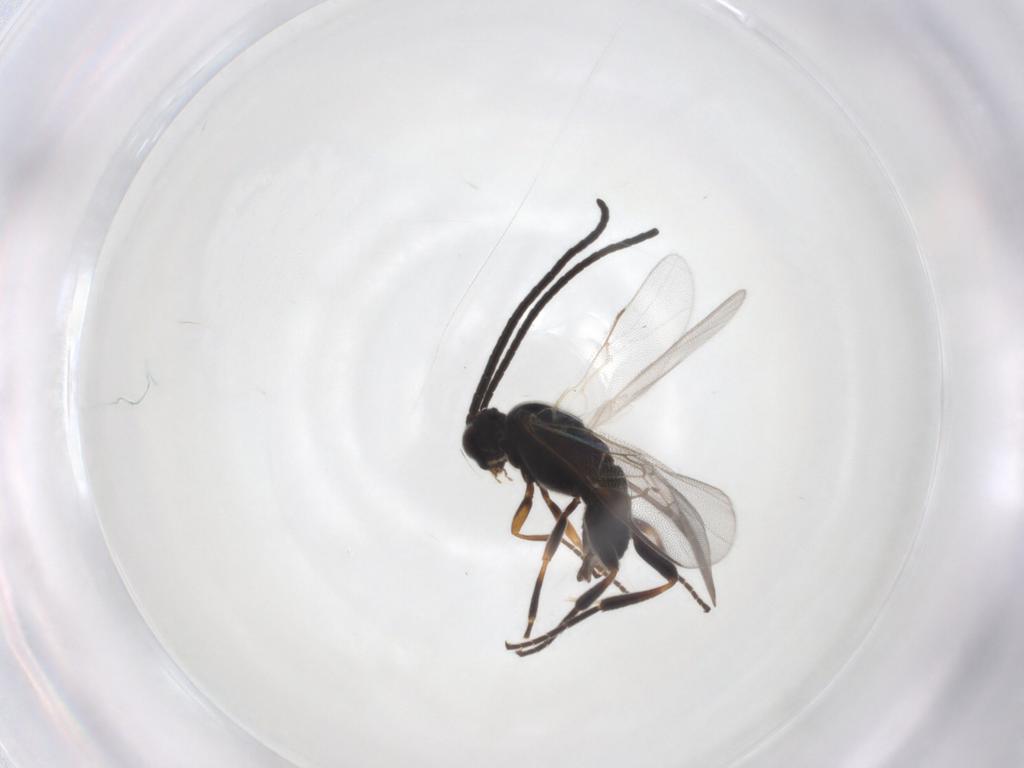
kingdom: Animalia
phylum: Arthropoda
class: Insecta
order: Hymenoptera
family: Braconidae
